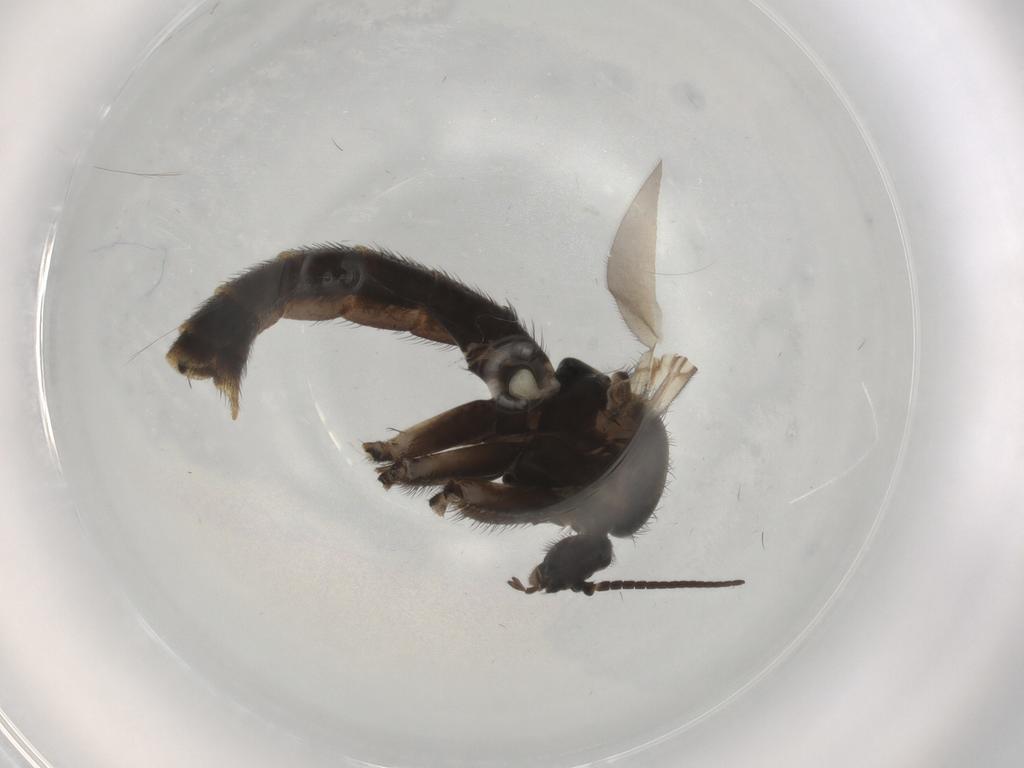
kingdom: Animalia
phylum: Arthropoda
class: Insecta
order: Diptera
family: Keroplatidae
